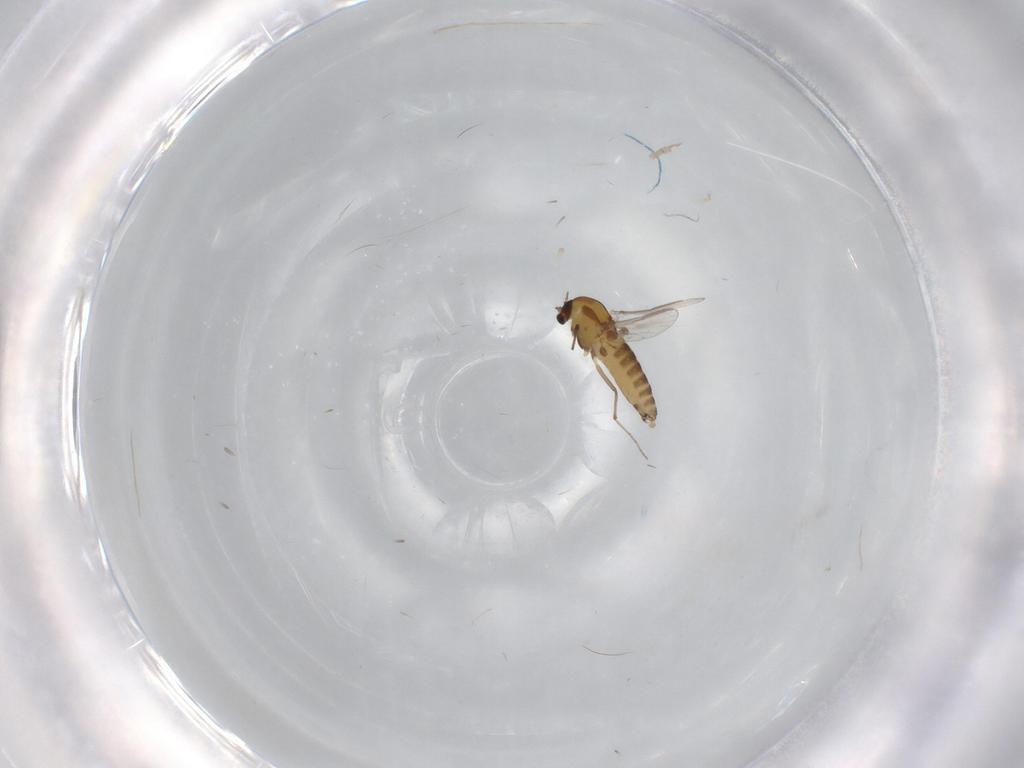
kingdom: Animalia
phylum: Arthropoda
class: Insecta
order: Diptera
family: Chironomidae
